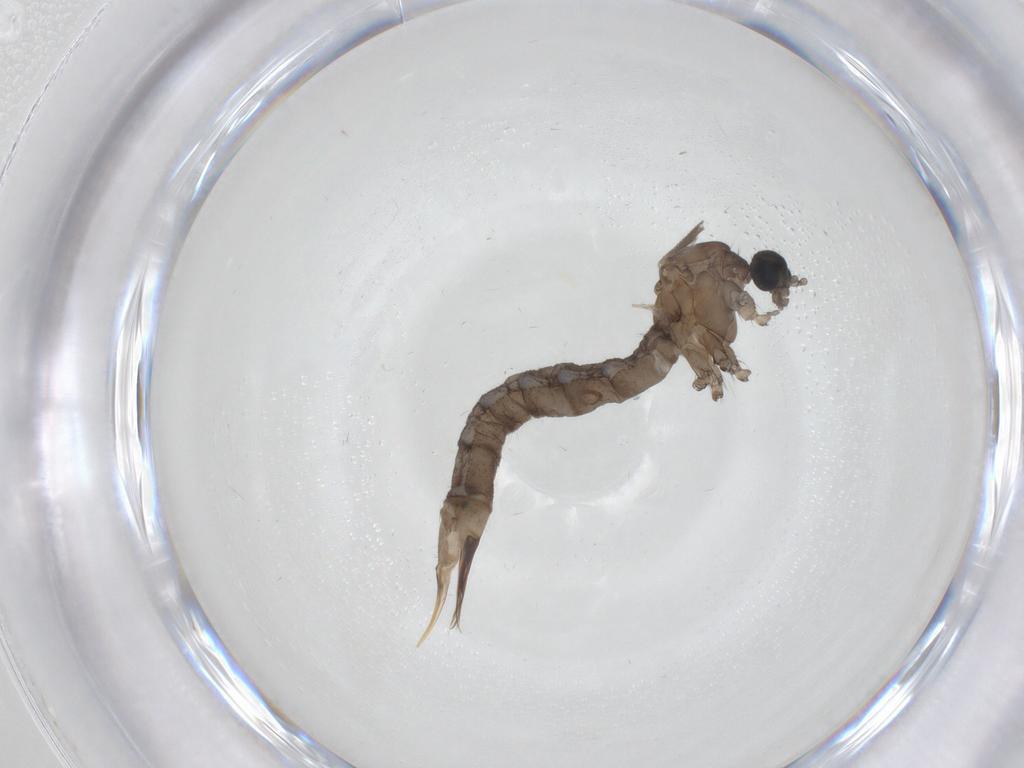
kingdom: Animalia
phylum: Arthropoda
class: Insecta
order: Diptera
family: Chironomidae
